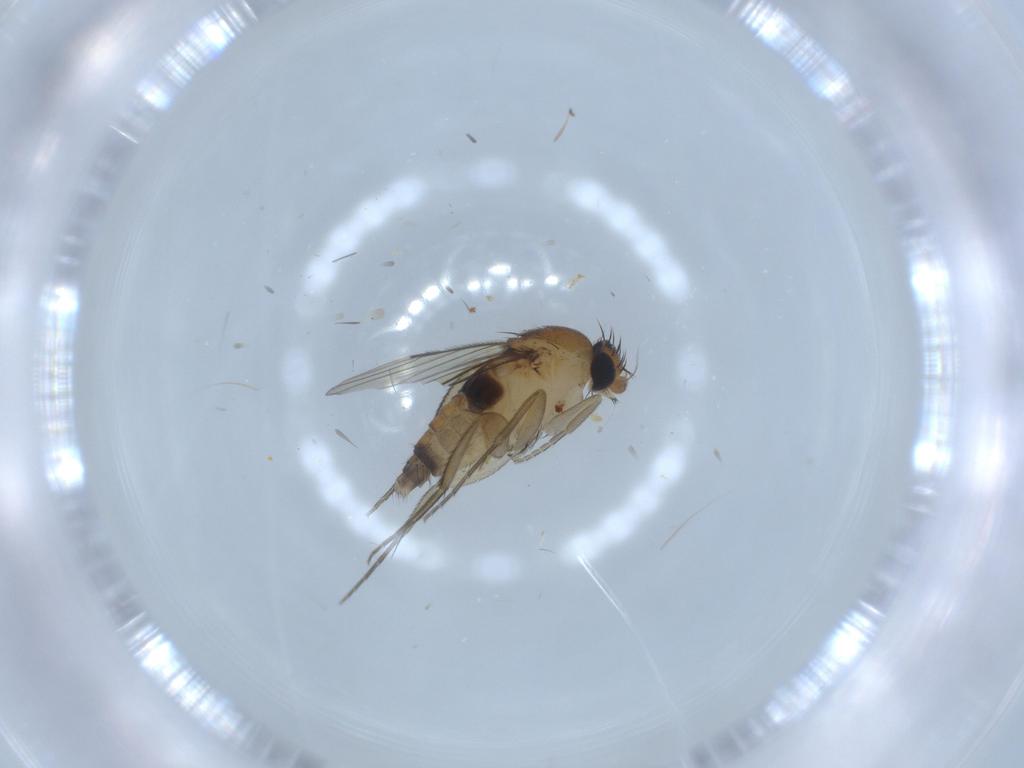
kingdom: Animalia
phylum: Arthropoda
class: Insecta
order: Diptera
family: Phoridae
